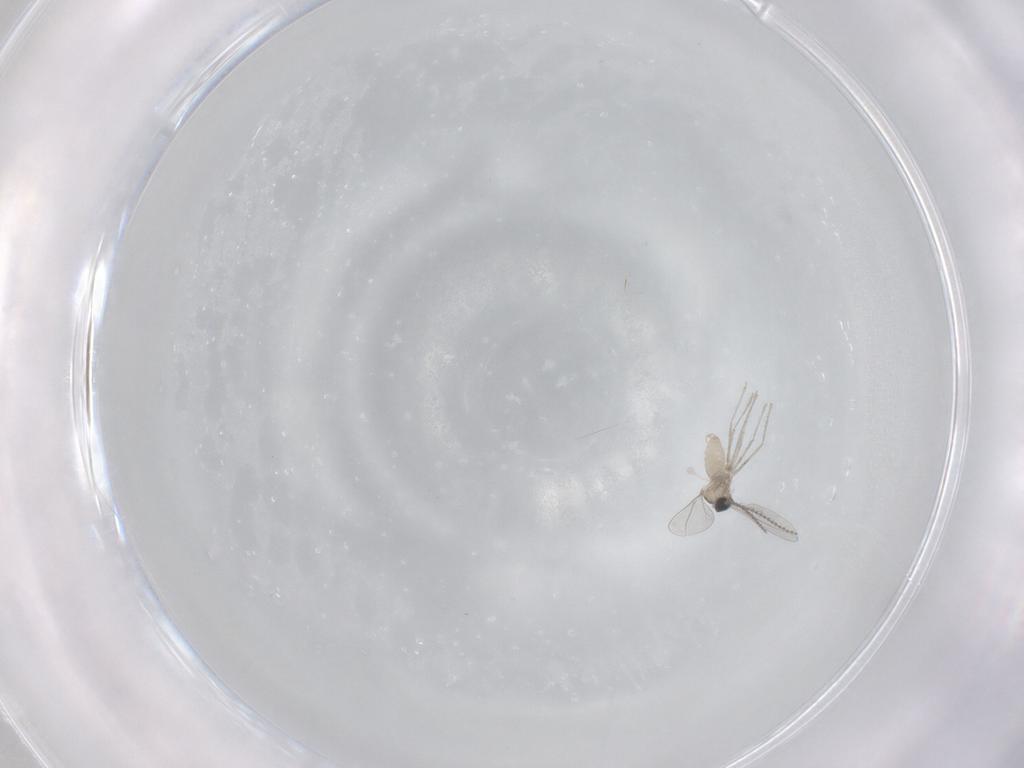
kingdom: Animalia
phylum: Arthropoda
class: Insecta
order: Diptera
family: Cecidomyiidae
